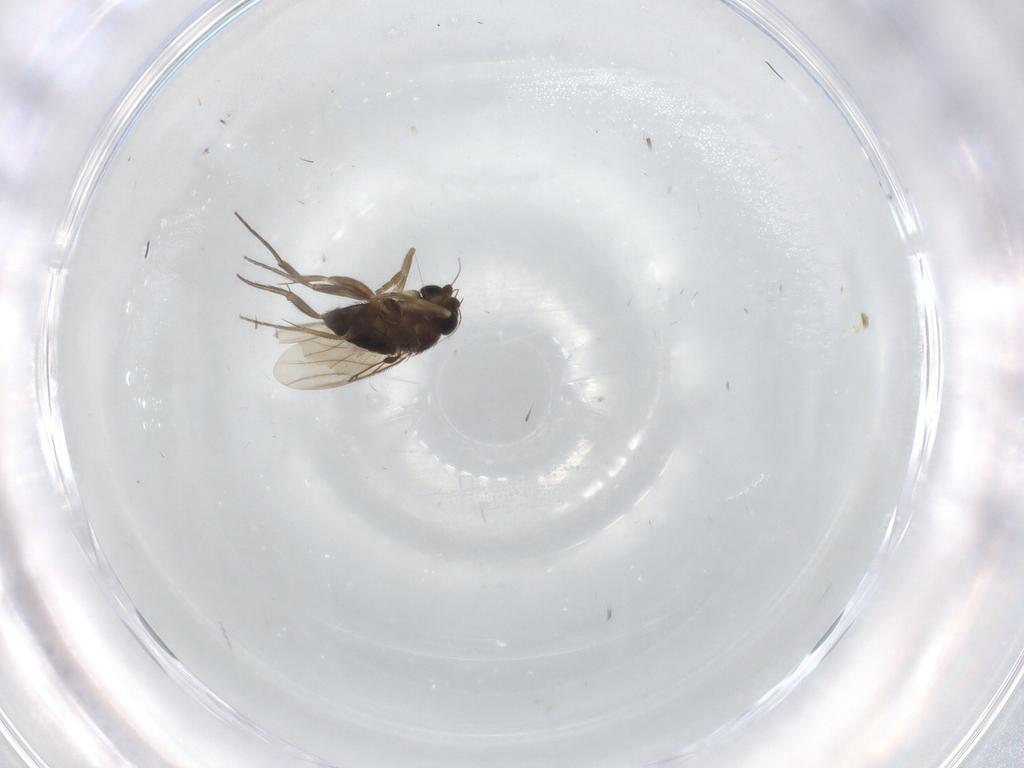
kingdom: Animalia
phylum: Arthropoda
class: Insecta
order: Diptera
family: Phoridae
